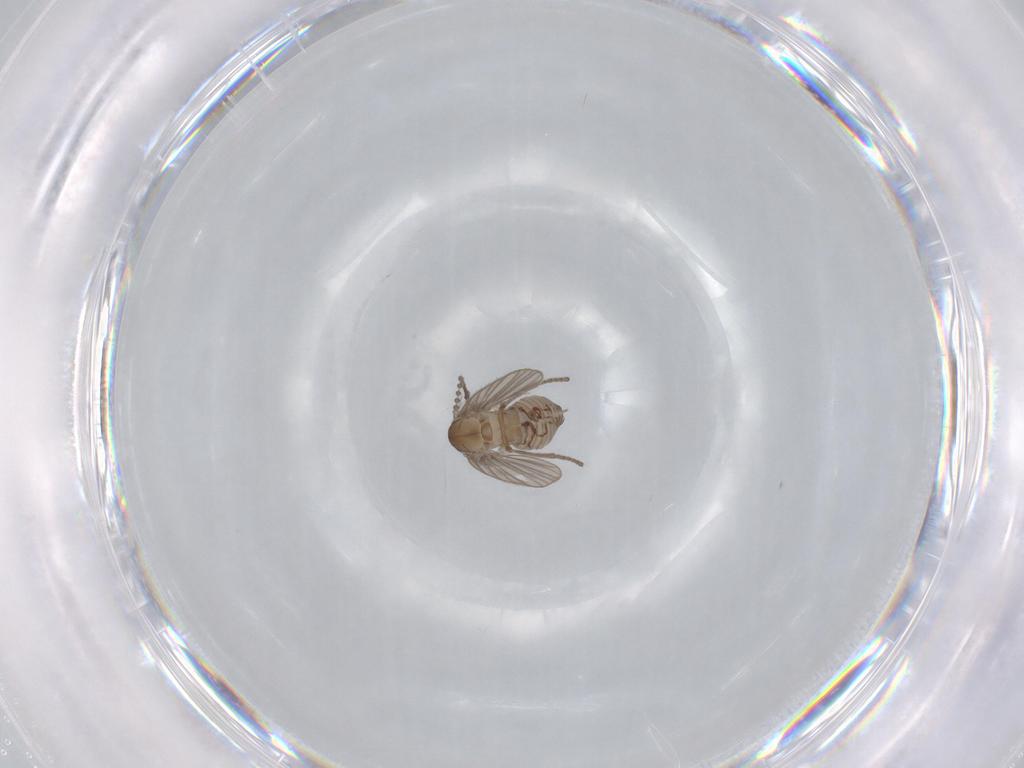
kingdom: Animalia
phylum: Arthropoda
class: Insecta
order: Diptera
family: Psychodidae
